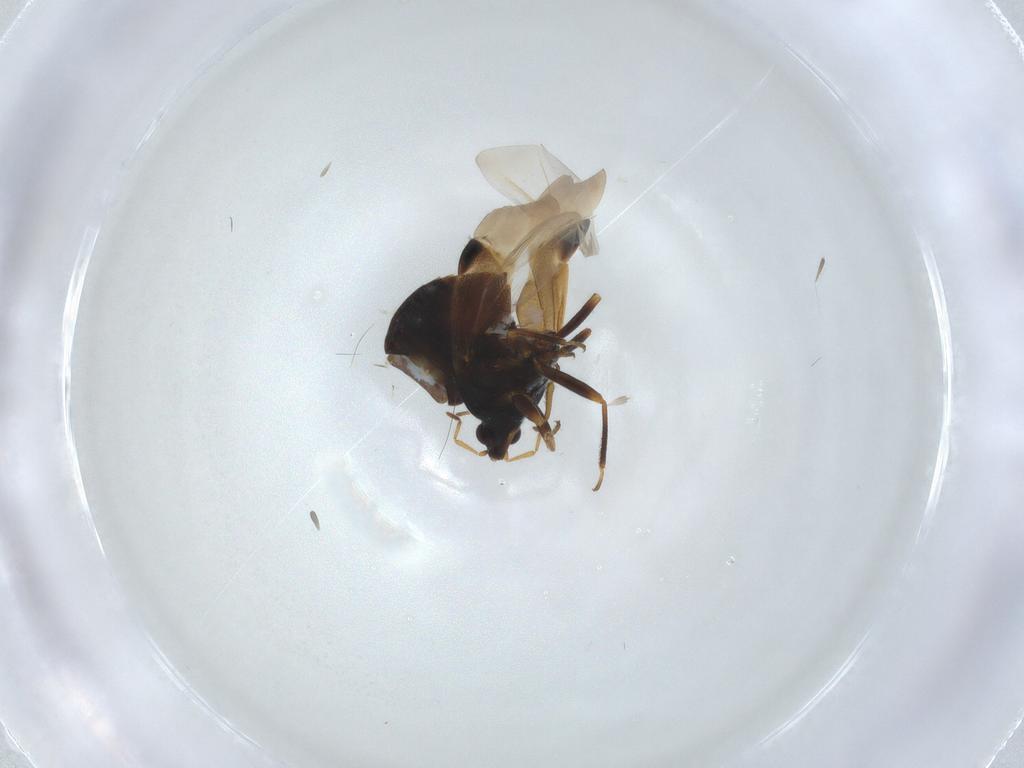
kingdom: Animalia
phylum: Arthropoda
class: Insecta
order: Hemiptera
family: Anthocoridae
